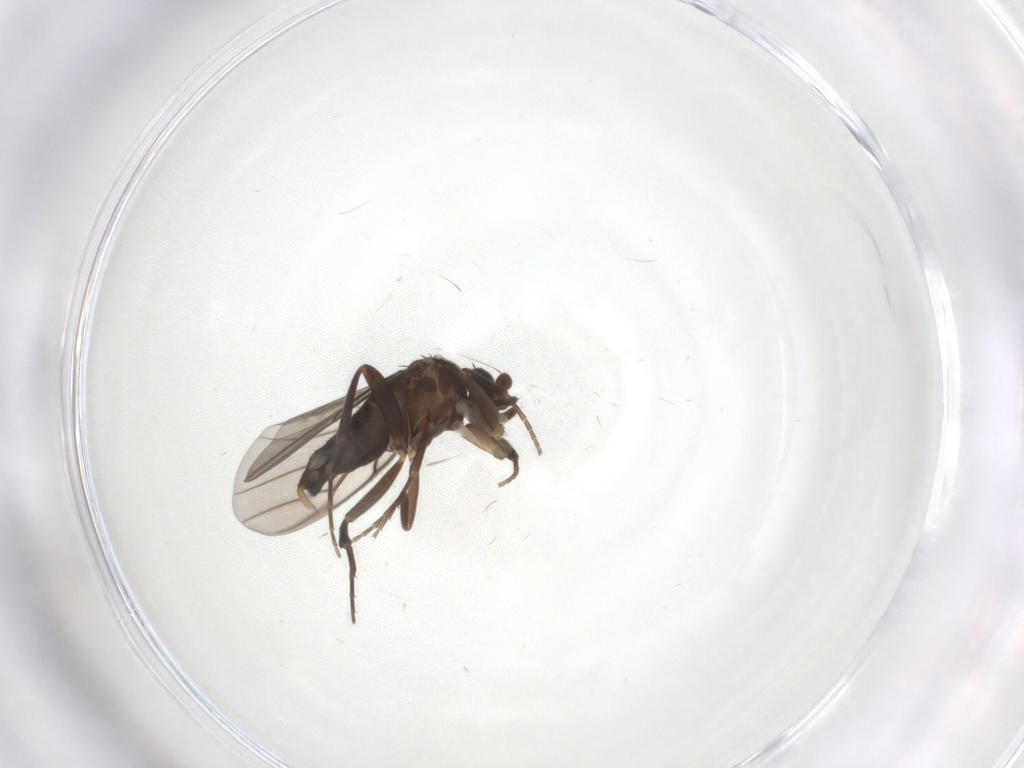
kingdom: Animalia
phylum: Arthropoda
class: Insecta
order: Diptera
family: Phoridae
